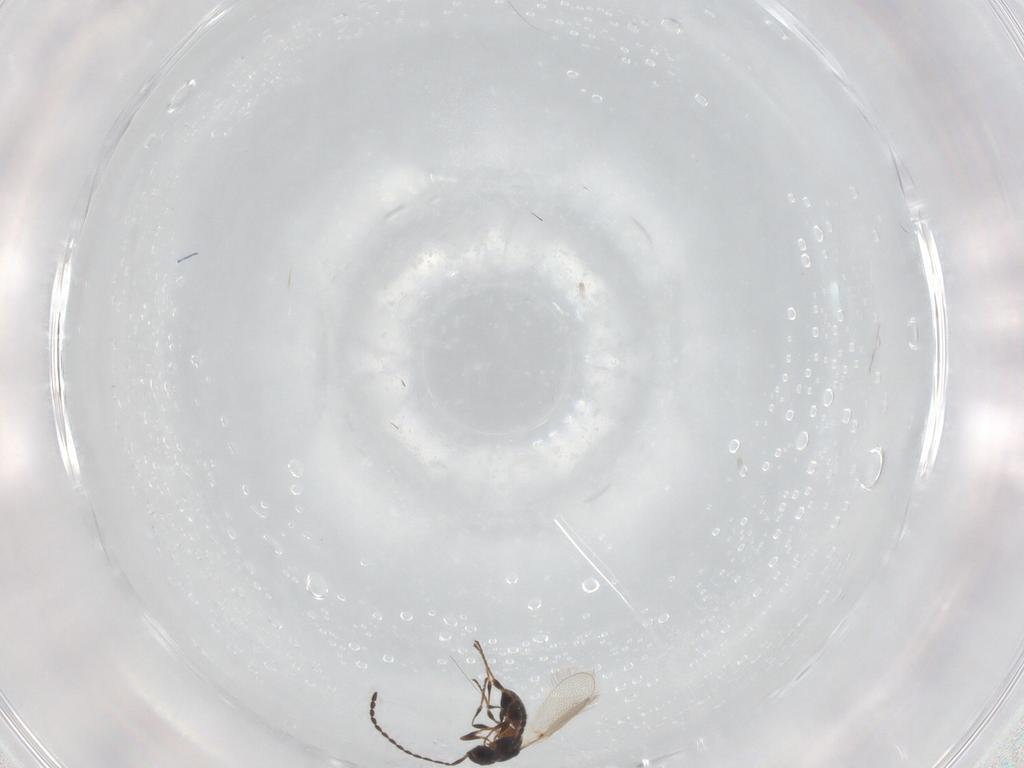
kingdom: Animalia
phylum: Arthropoda
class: Insecta
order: Hymenoptera
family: Diapriidae
